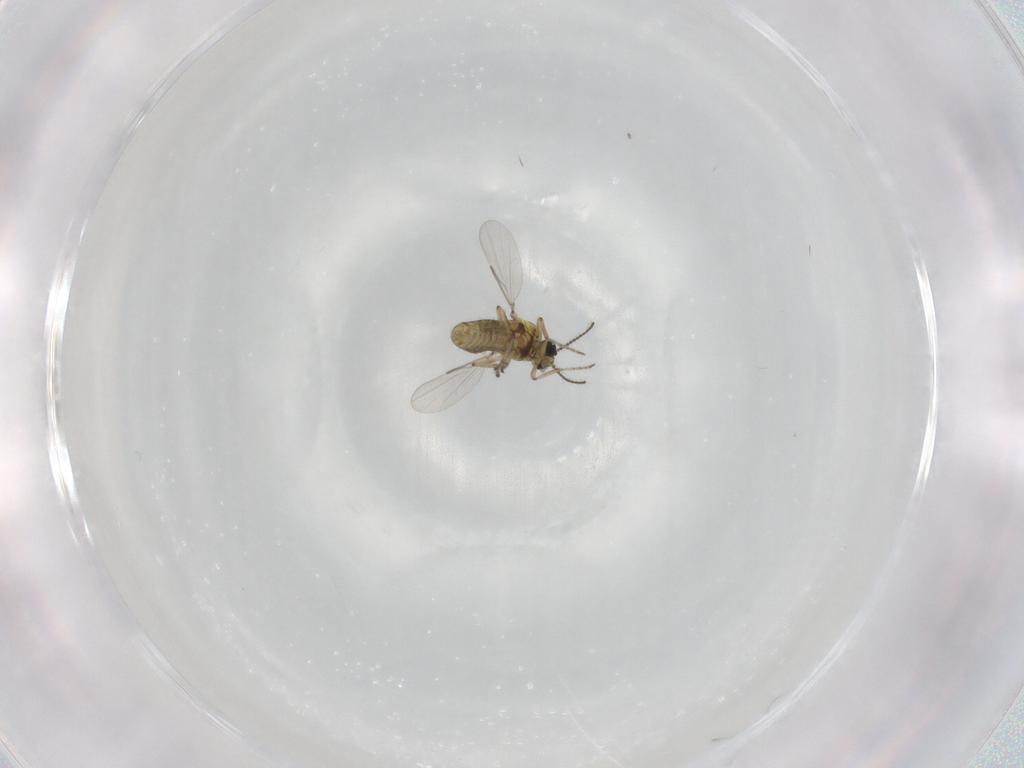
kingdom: Animalia
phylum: Arthropoda
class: Insecta
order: Diptera
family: Ceratopogonidae
